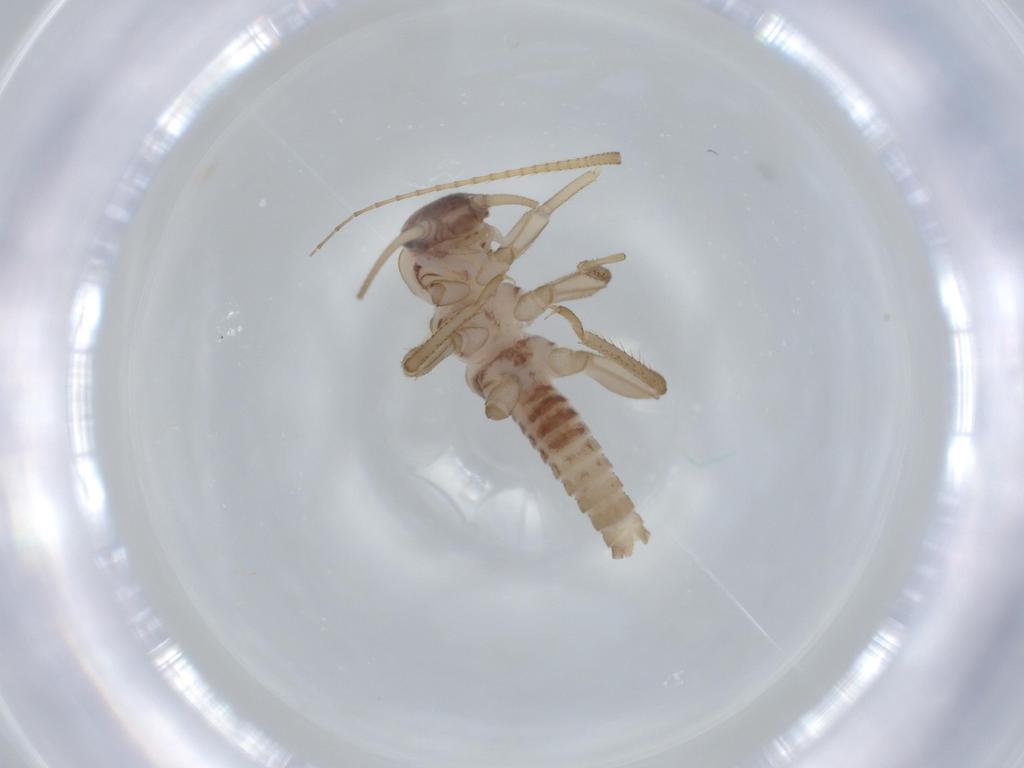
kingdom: Animalia
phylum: Arthropoda
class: Insecta
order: Plecoptera
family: Nemouridae
